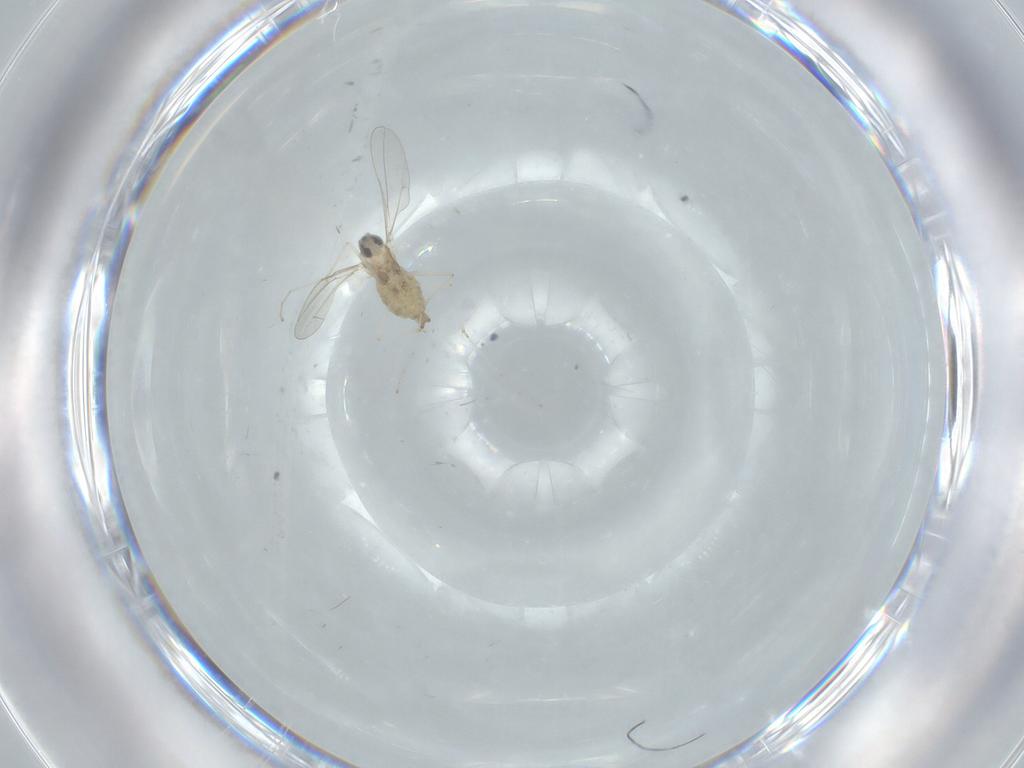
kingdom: Animalia
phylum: Arthropoda
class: Insecta
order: Diptera
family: Cecidomyiidae
